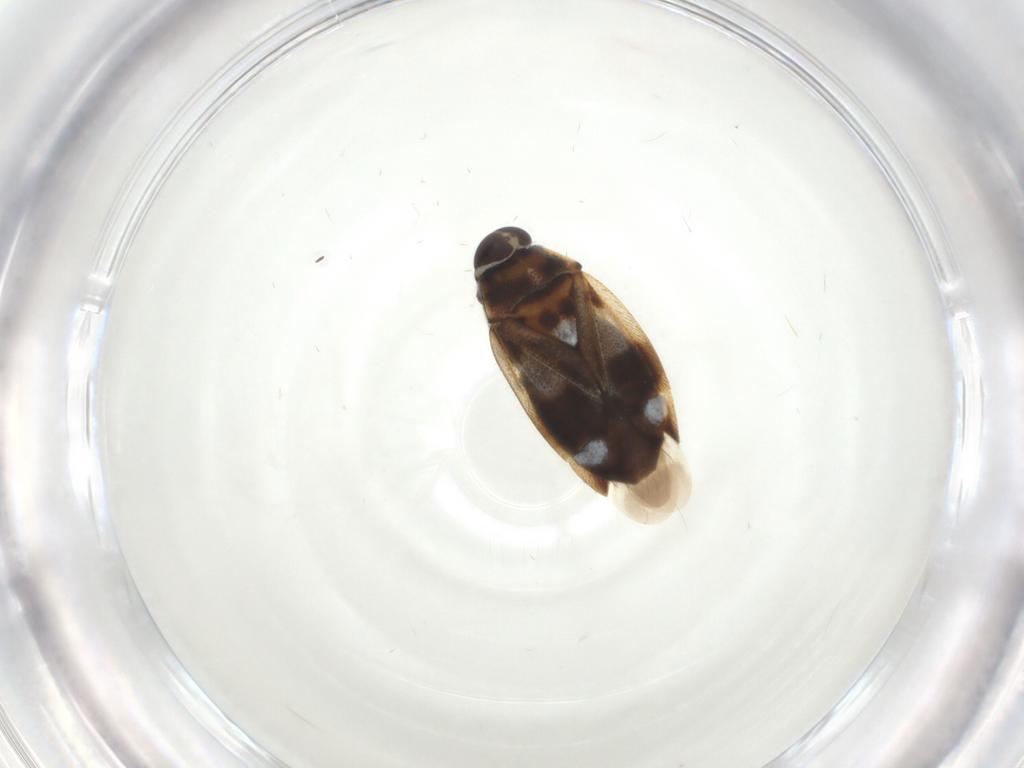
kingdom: Animalia
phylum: Arthropoda
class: Insecta
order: Hemiptera
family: Miridae
